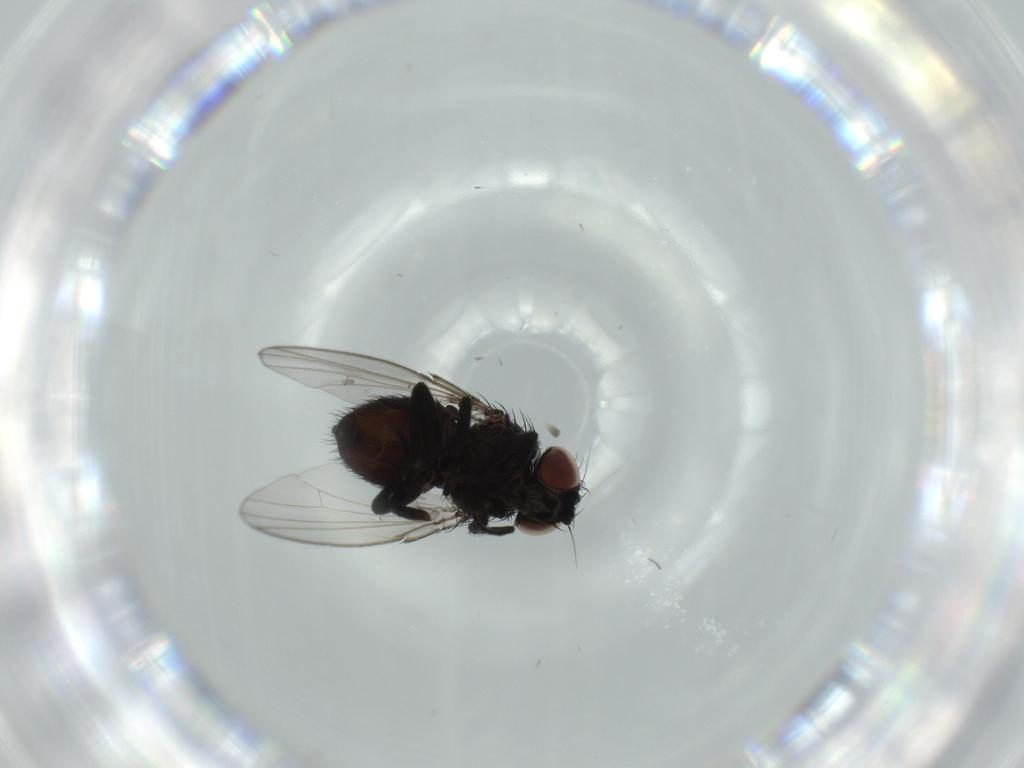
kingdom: Animalia
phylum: Arthropoda
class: Insecta
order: Diptera
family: Milichiidae
